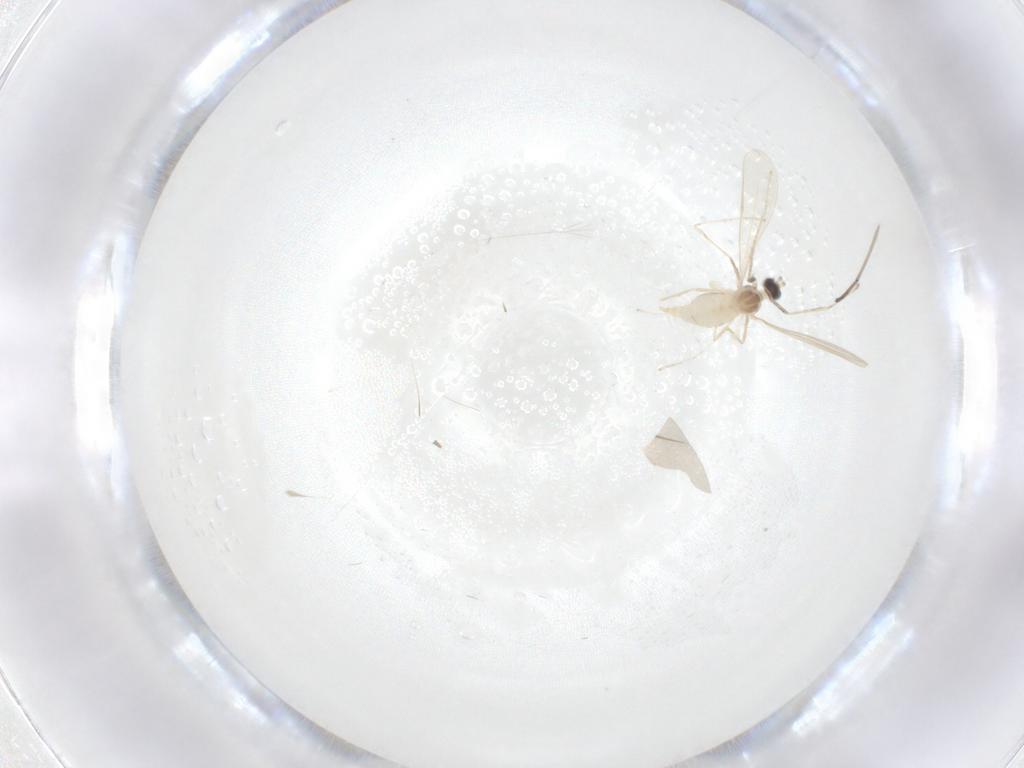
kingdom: Animalia
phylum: Arthropoda
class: Insecta
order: Diptera
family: Cecidomyiidae
